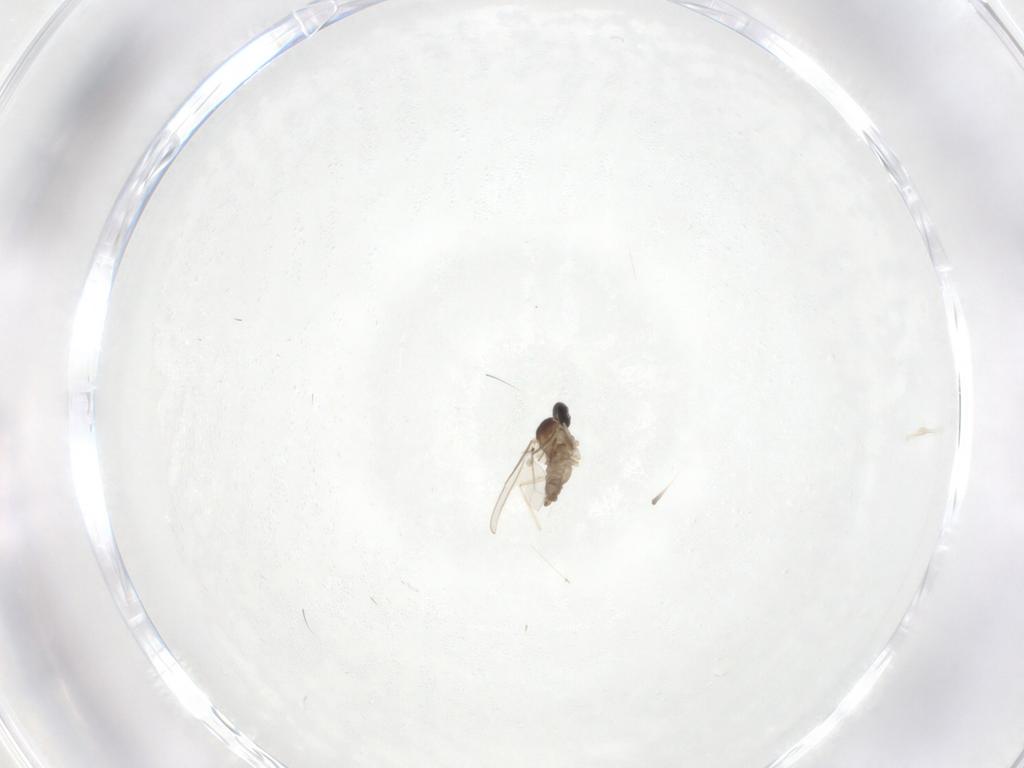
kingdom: Animalia
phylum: Arthropoda
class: Insecta
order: Diptera
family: Cecidomyiidae
